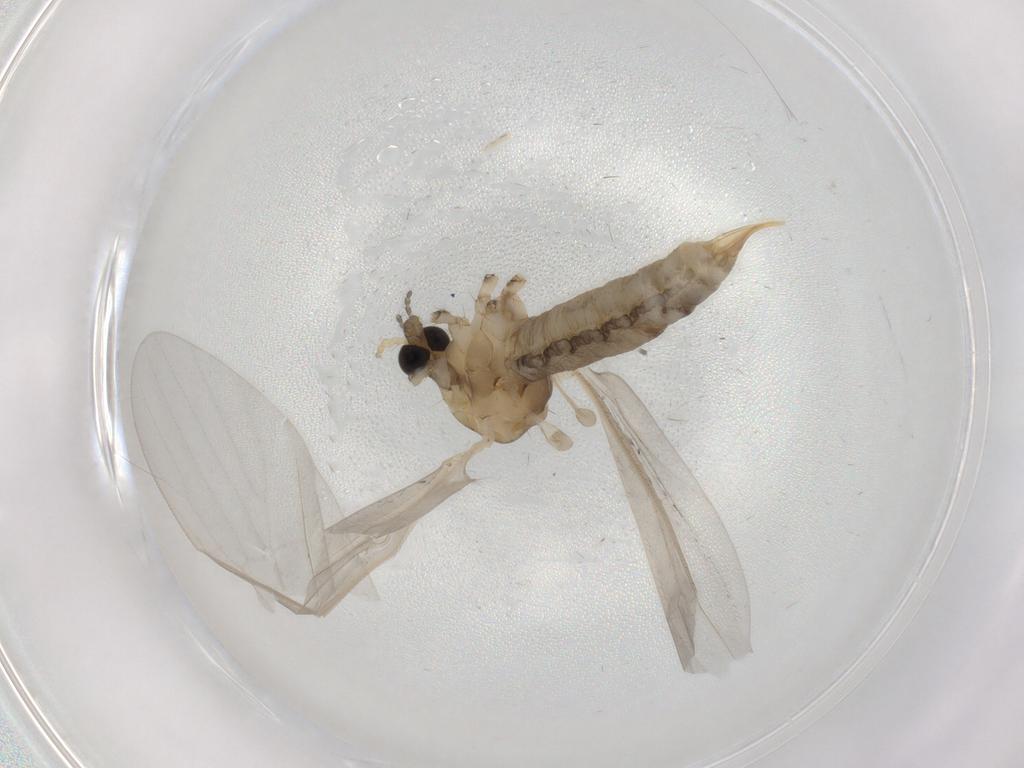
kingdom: Animalia
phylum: Arthropoda
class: Insecta
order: Diptera
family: Limoniidae
